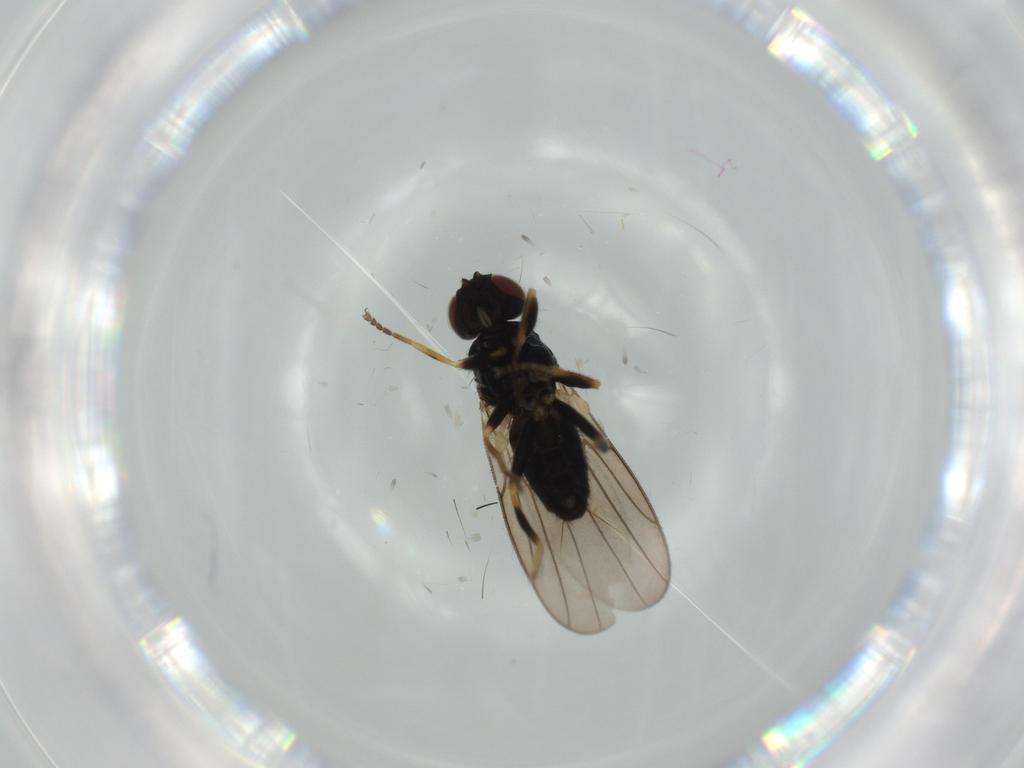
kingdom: Animalia
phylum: Arthropoda
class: Insecta
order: Diptera
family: Chloropidae
